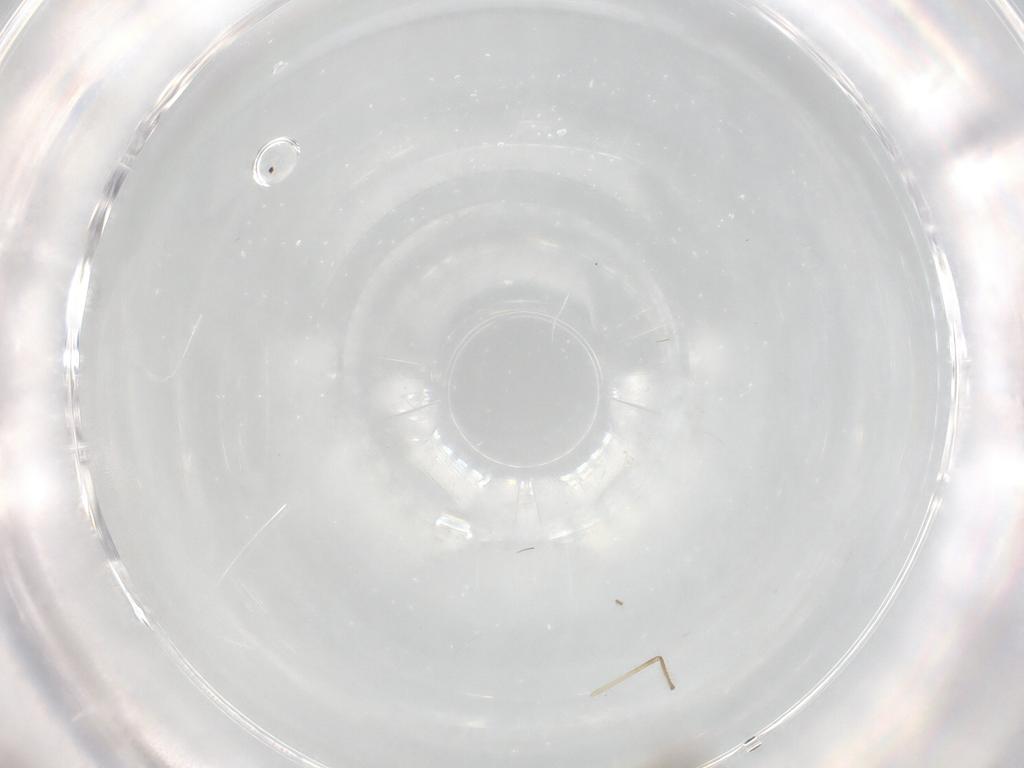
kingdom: Animalia
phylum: Arthropoda
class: Insecta
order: Diptera
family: Chironomidae
